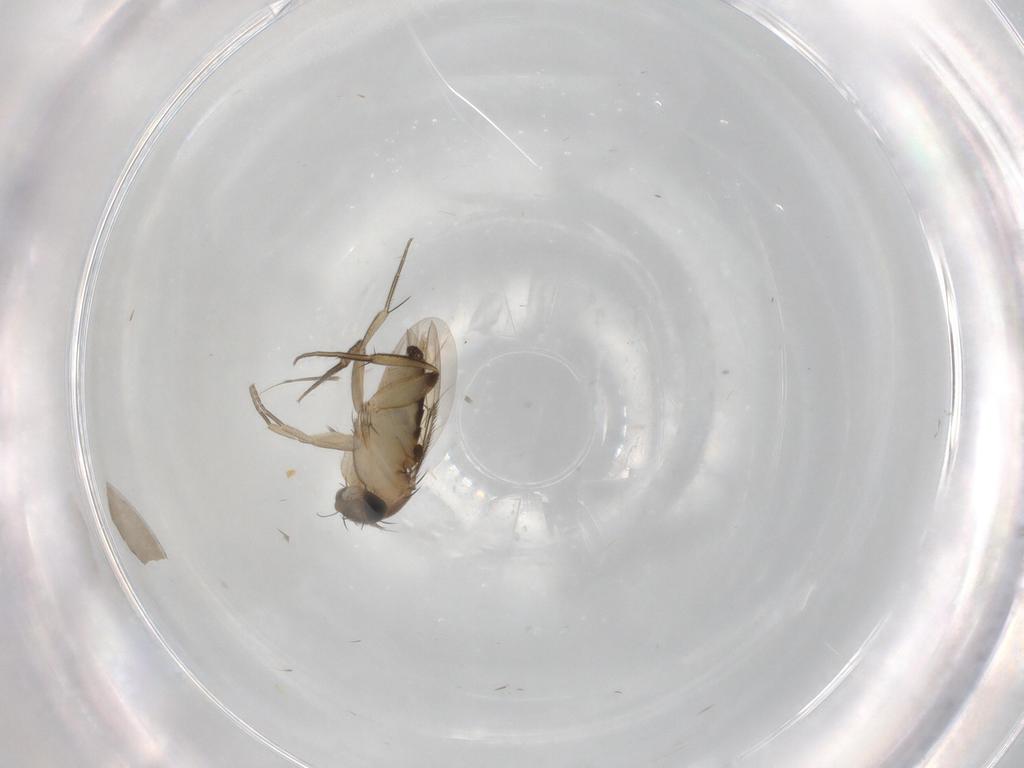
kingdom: Animalia
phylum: Arthropoda
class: Insecta
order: Diptera
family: Phoridae
